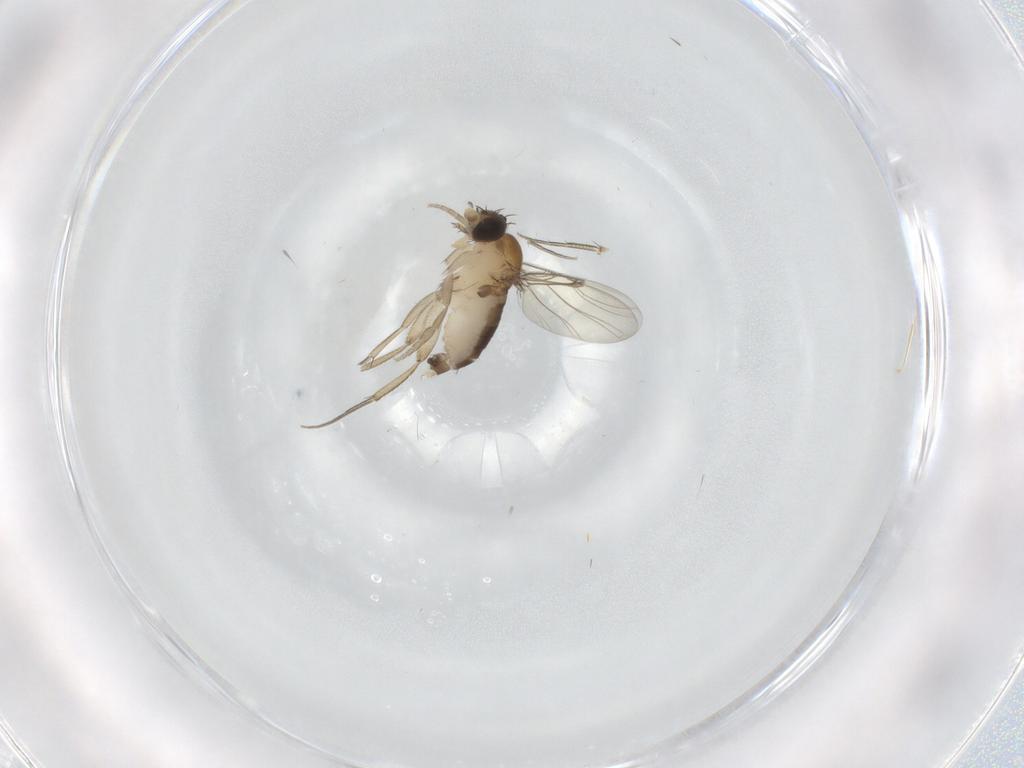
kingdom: Animalia
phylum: Arthropoda
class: Insecta
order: Diptera
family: Phoridae
